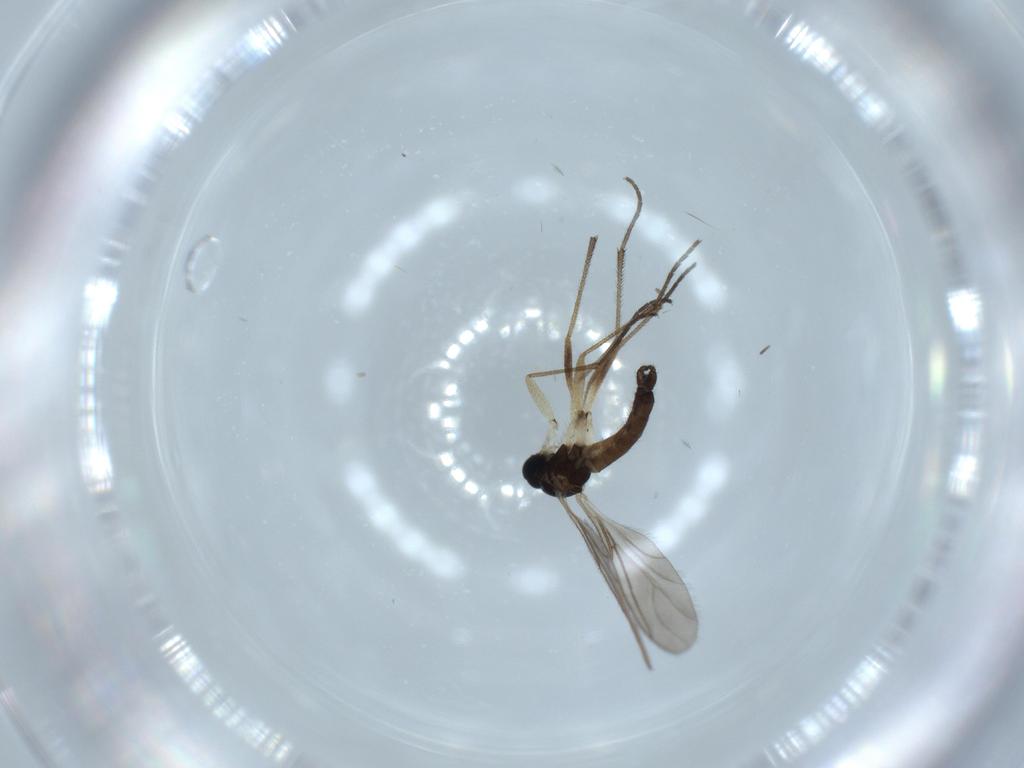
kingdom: Animalia
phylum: Arthropoda
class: Insecta
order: Diptera
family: Sciaridae
